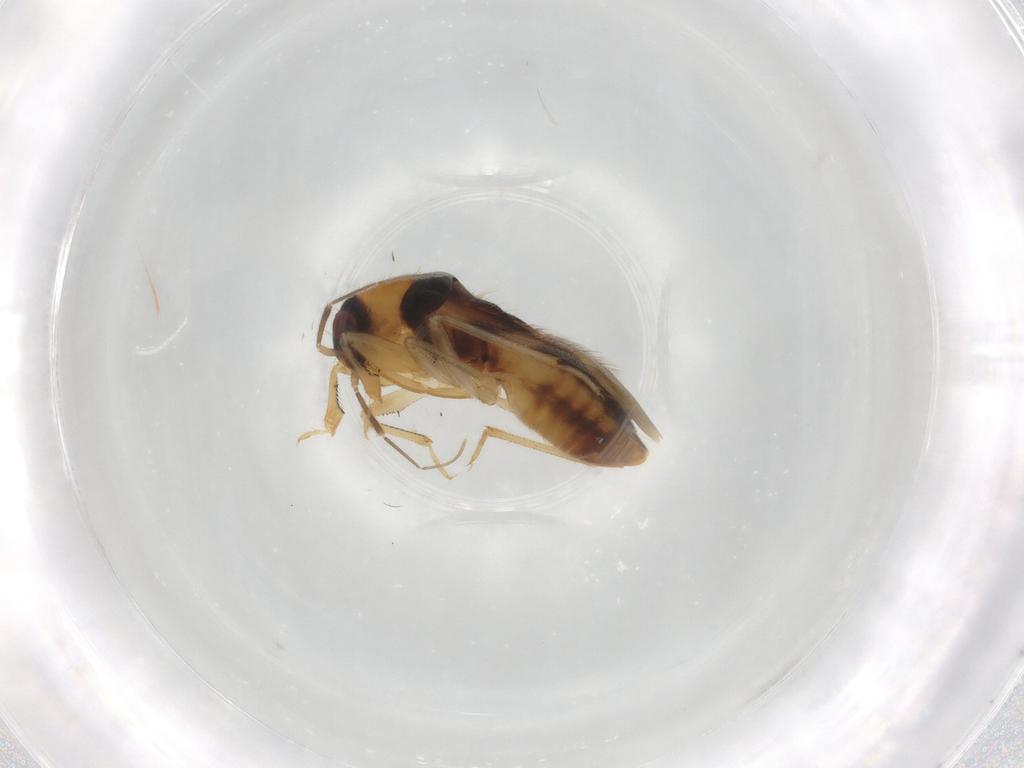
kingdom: Animalia
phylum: Arthropoda
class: Insecta
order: Hemiptera
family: Nabidae
